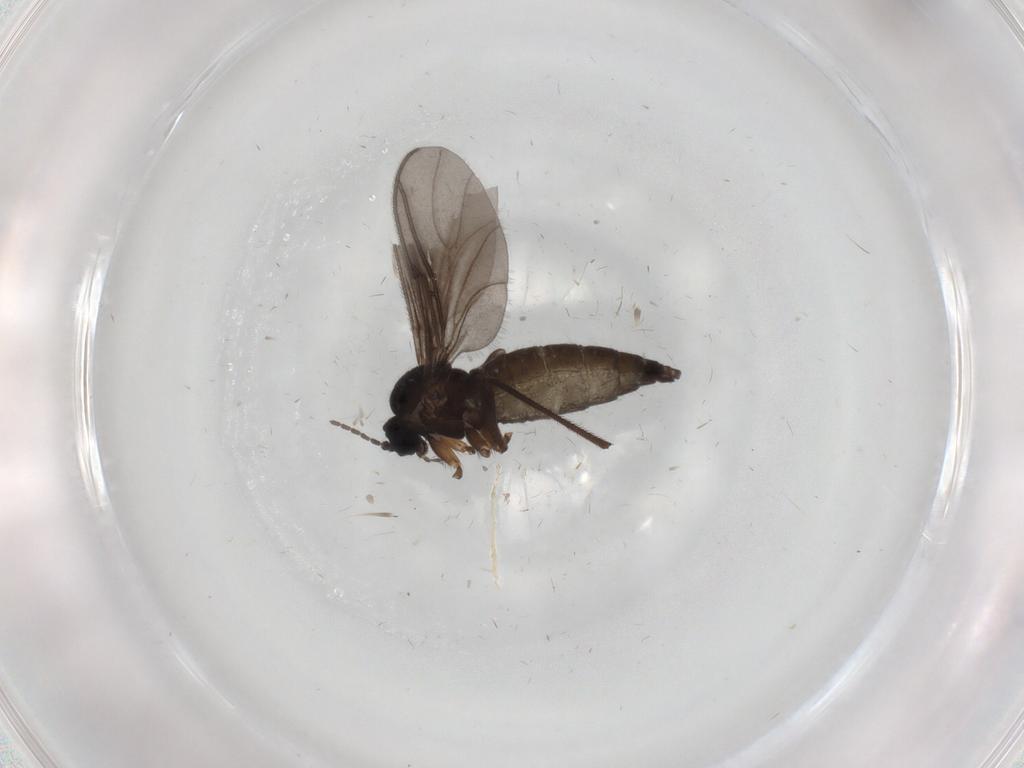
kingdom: Animalia
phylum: Arthropoda
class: Insecta
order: Diptera
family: Sciaridae
